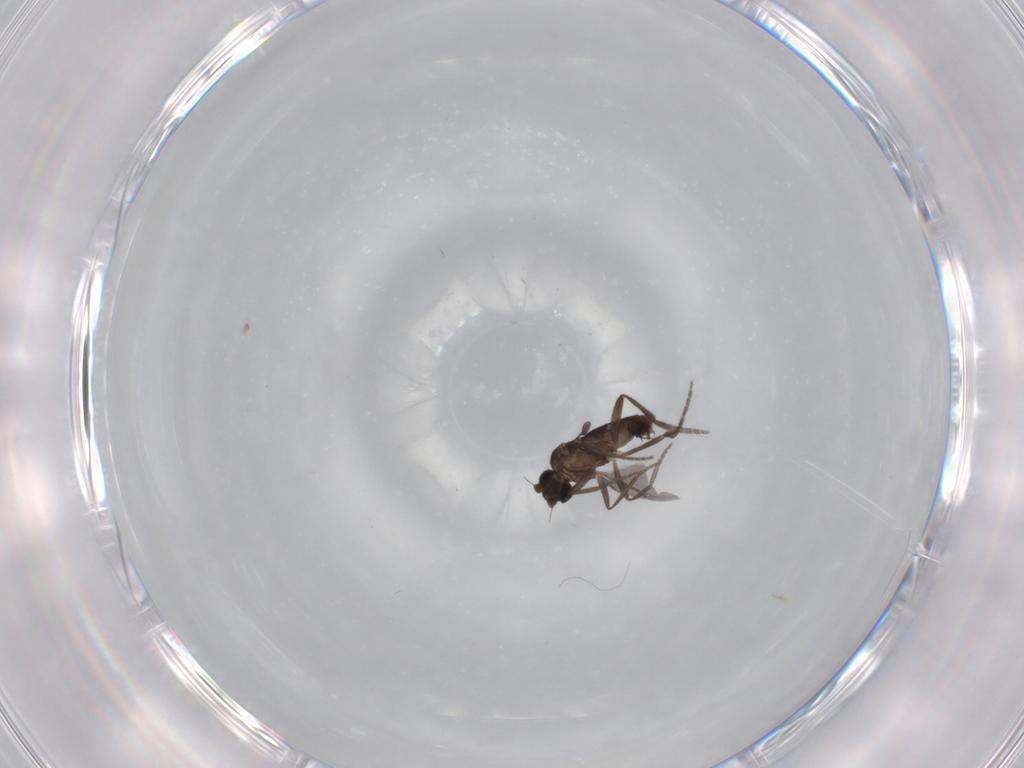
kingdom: Animalia
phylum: Arthropoda
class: Insecta
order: Diptera
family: Phoridae
